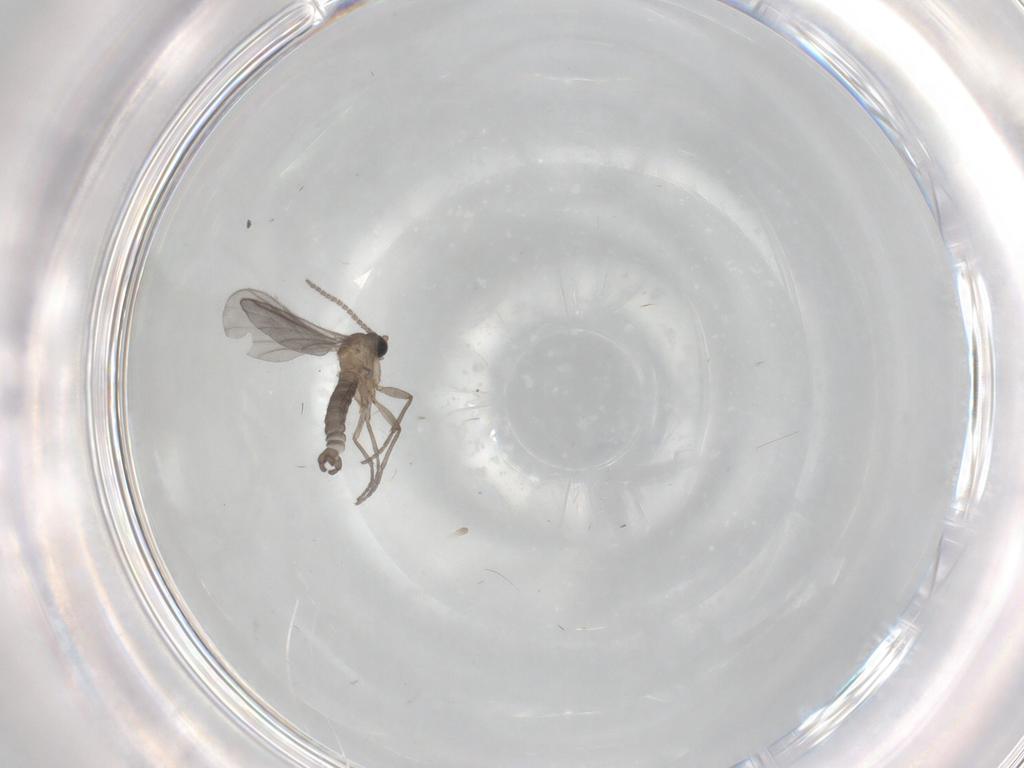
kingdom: Animalia
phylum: Arthropoda
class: Insecta
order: Diptera
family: Sciaridae
